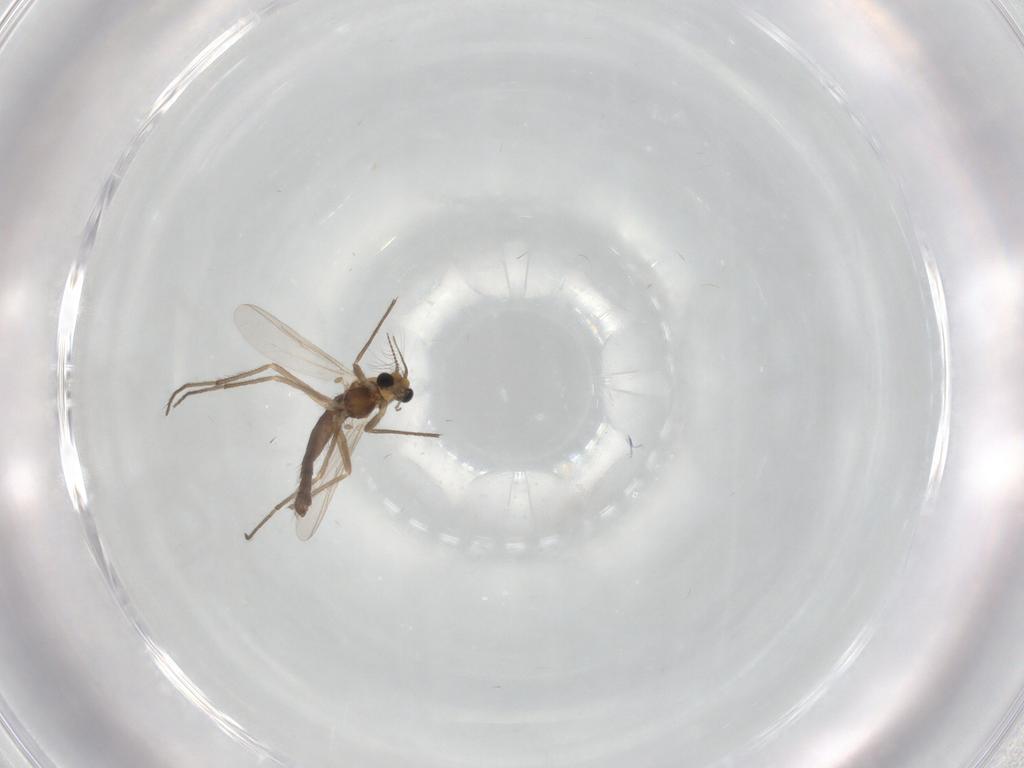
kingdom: Animalia
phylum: Arthropoda
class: Insecta
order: Diptera
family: Chironomidae
